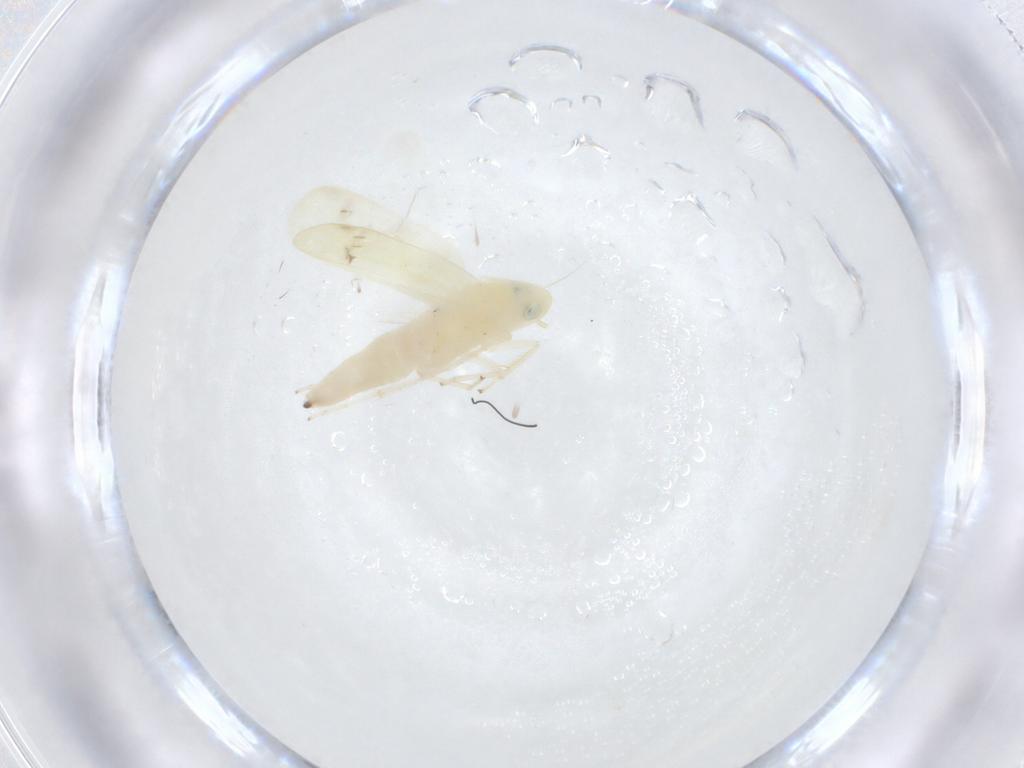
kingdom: Animalia
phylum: Arthropoda
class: Insecta
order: Hemiptera
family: Cicadellidae
